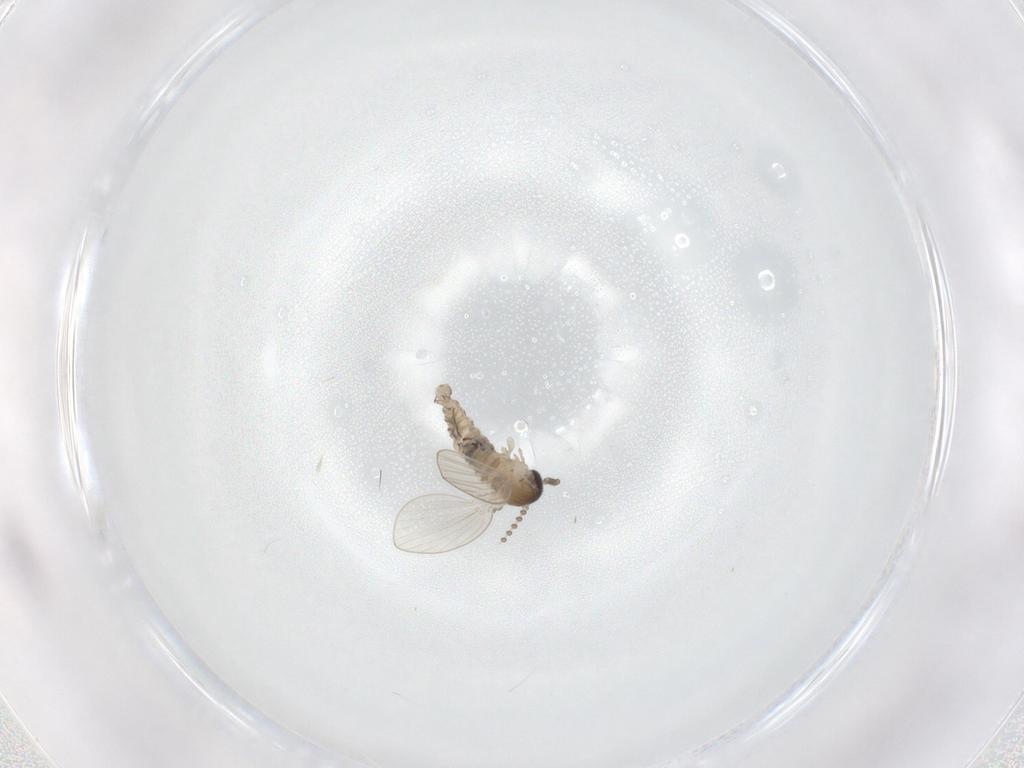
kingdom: Animalia
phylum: Arthropoda
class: Insecta
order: Diptera
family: Psychodidae
